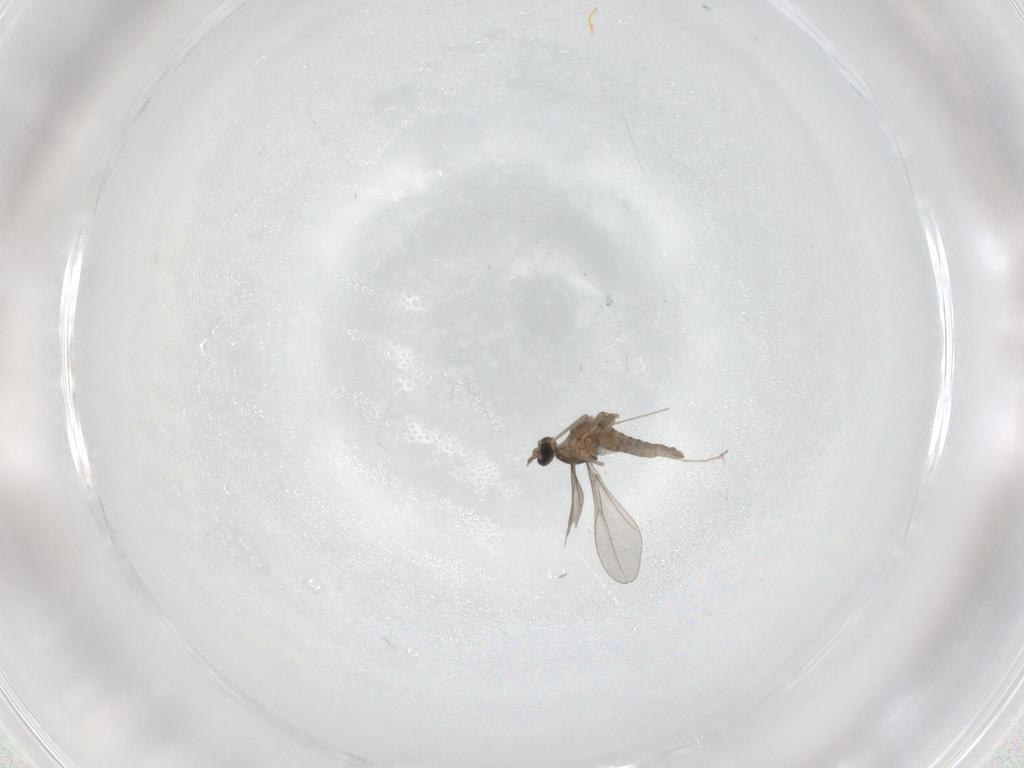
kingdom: Animalia
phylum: Arthropoda
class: Insecta
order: Diptera
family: Cecidomyiidae
